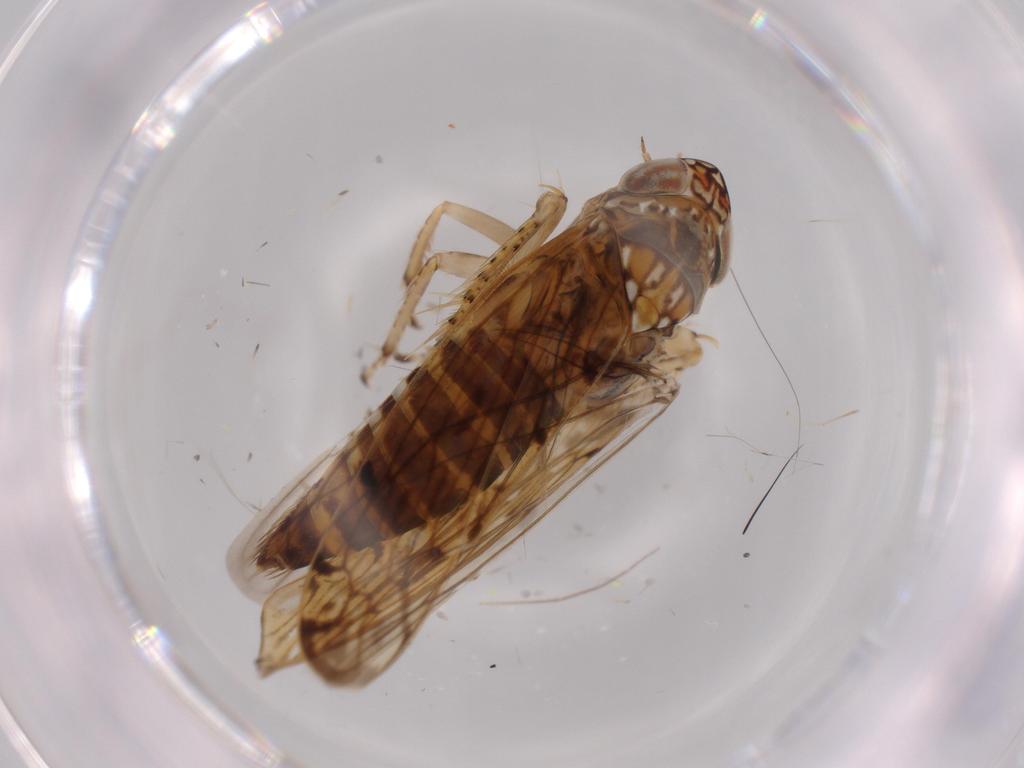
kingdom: Animalia
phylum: Arthropoda
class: Insecta
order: Hemiptera
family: Cicadellidae
